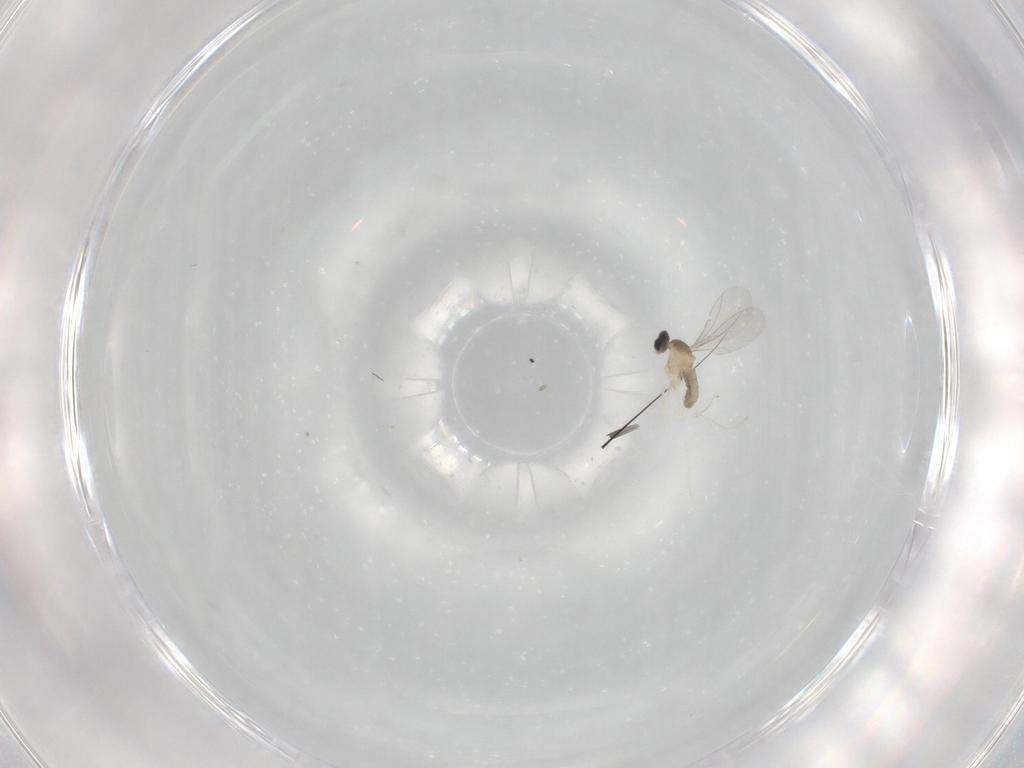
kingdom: Animalia
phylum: Arthropoda
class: Insecta
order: Diptera
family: Cecidomyiidae
